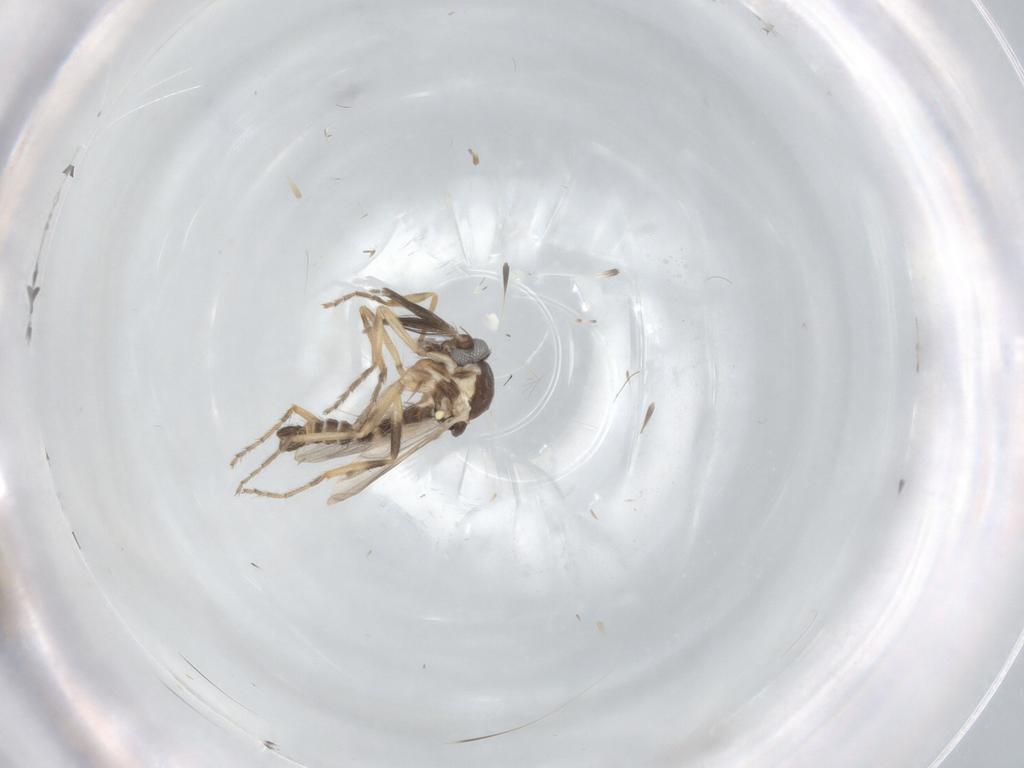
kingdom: Animalia
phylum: Arthropoda
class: Insecta
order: Diptera
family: Ceratopogonidae
